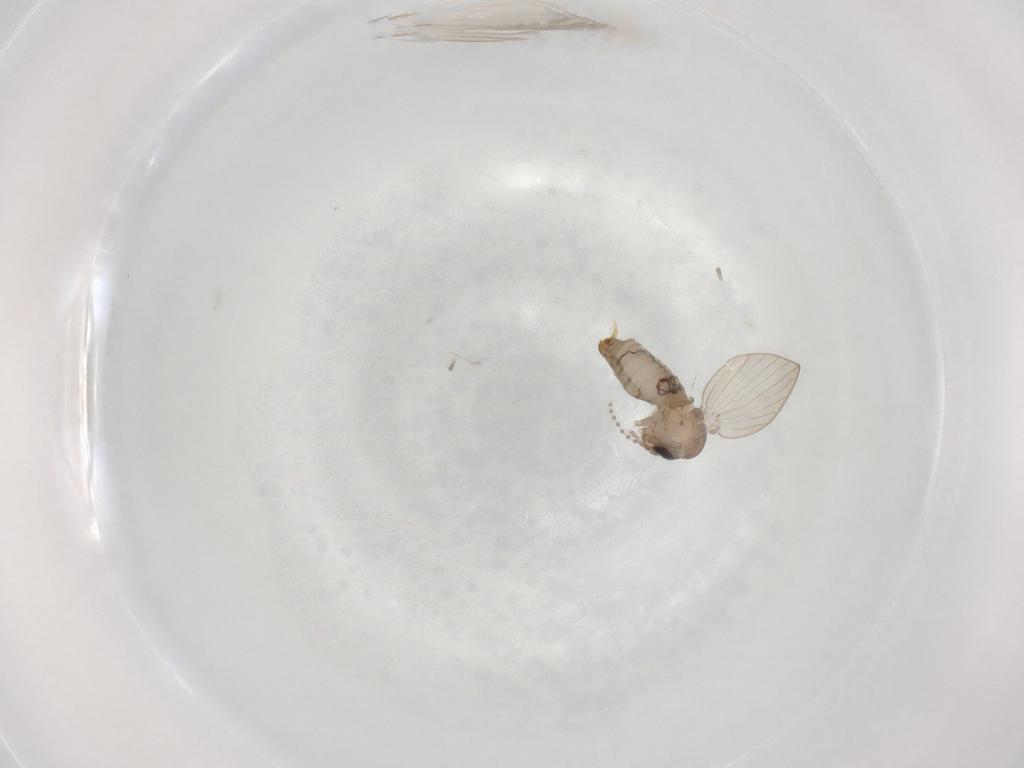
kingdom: Animalia
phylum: Arthropoda
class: Insecta
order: Diptera
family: Psychodidae
